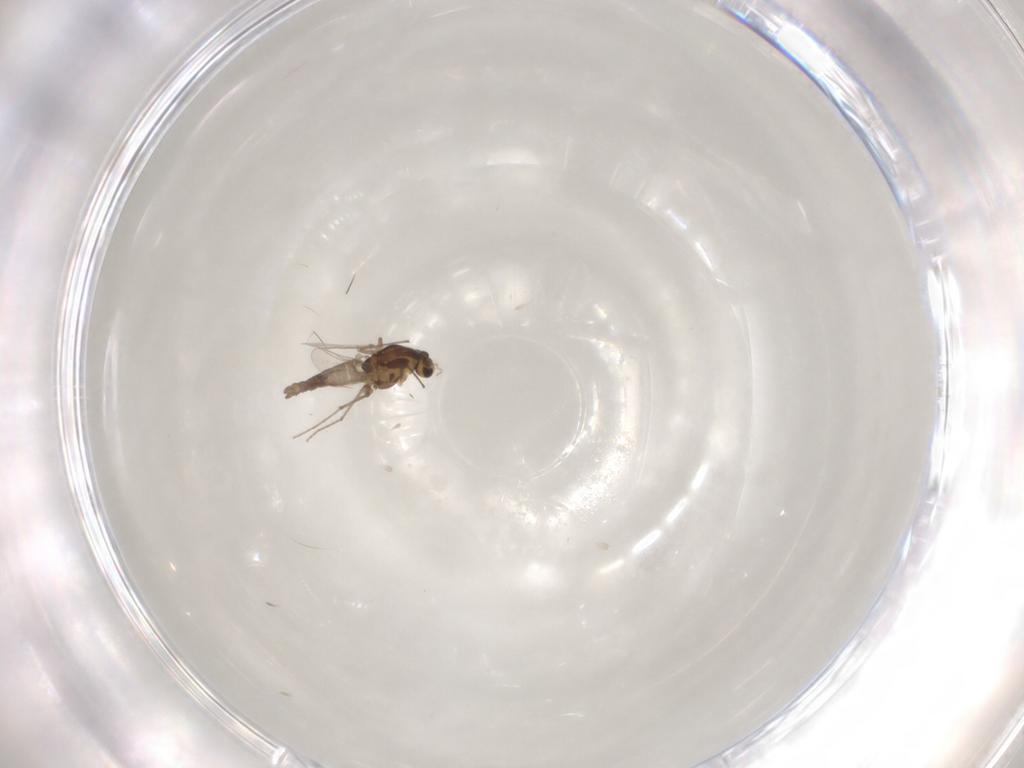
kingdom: Animalia
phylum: Arthropoda
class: Insecta
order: Diptera
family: Chironomidae
